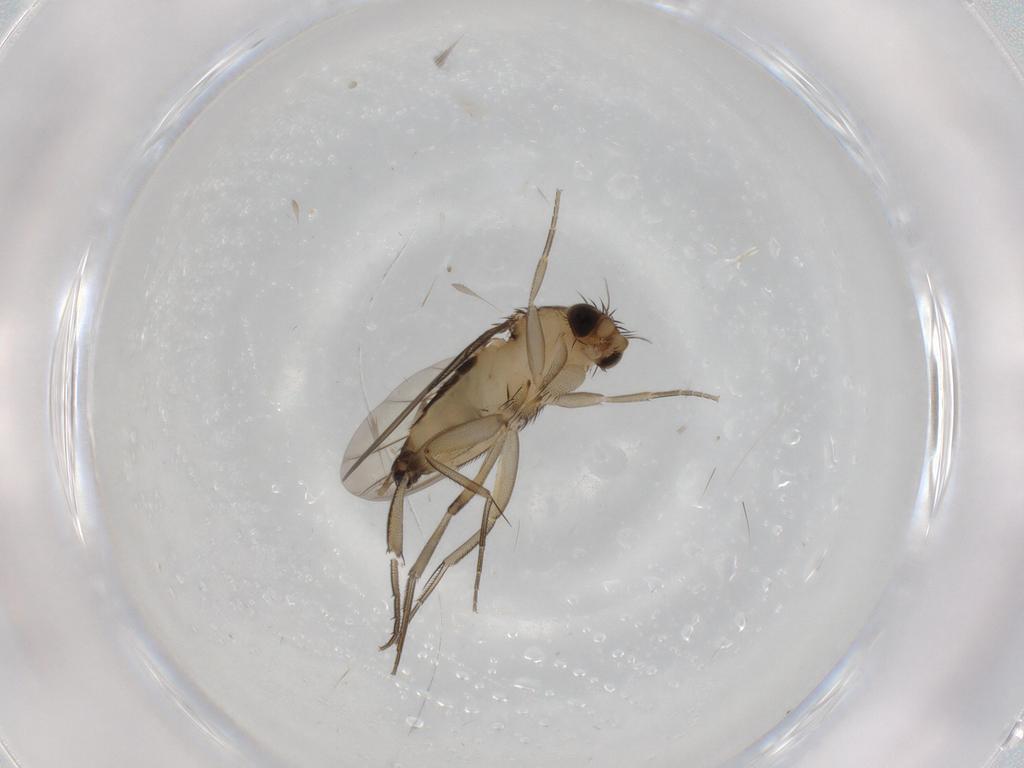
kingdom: Animalia
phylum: Arthropoda
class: Insecta
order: Diptera
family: Phoridae
